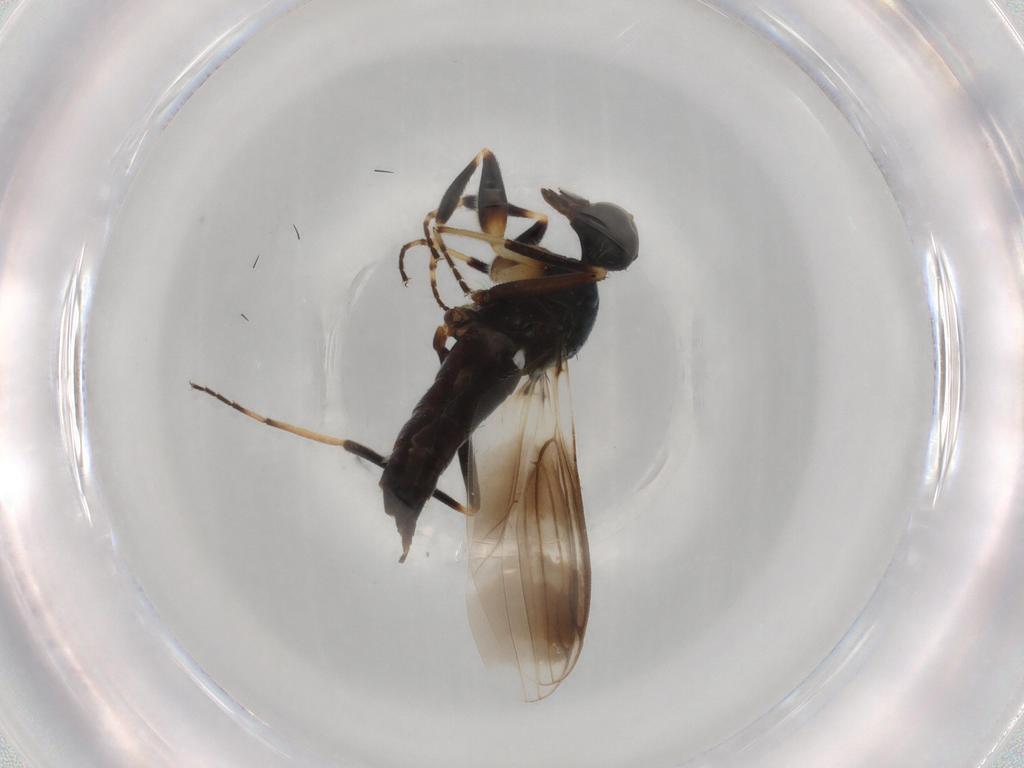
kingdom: Animalia
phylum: Arthropoda
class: Insecta
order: Diptera
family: Hybotidae
